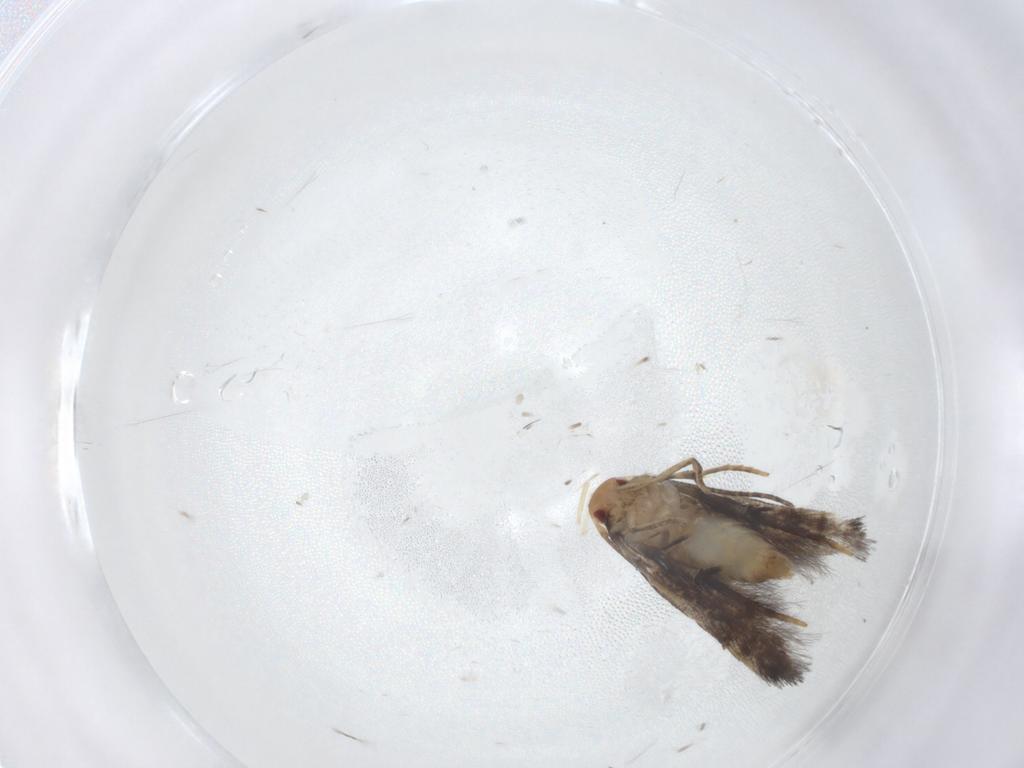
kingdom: Animalia
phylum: Arthropoda
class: Insecta
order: Lepidoptera
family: Momphidae
